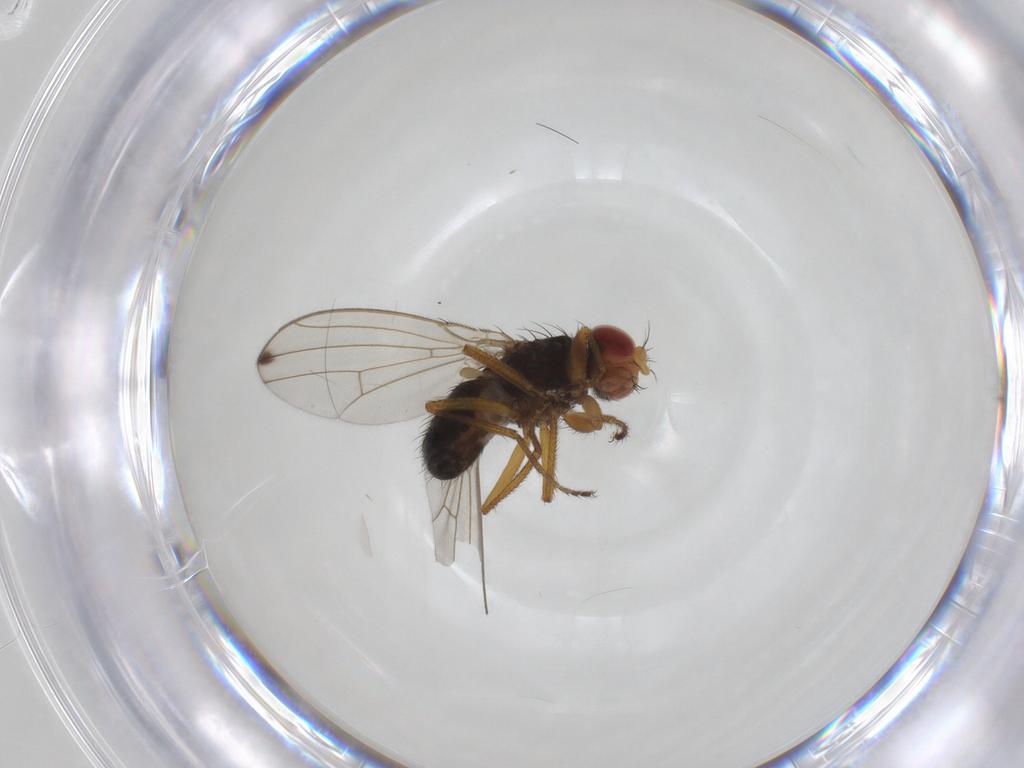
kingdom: Animalia
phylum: Arthropoda
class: Insecta
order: Diptera
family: Drosophilidae
